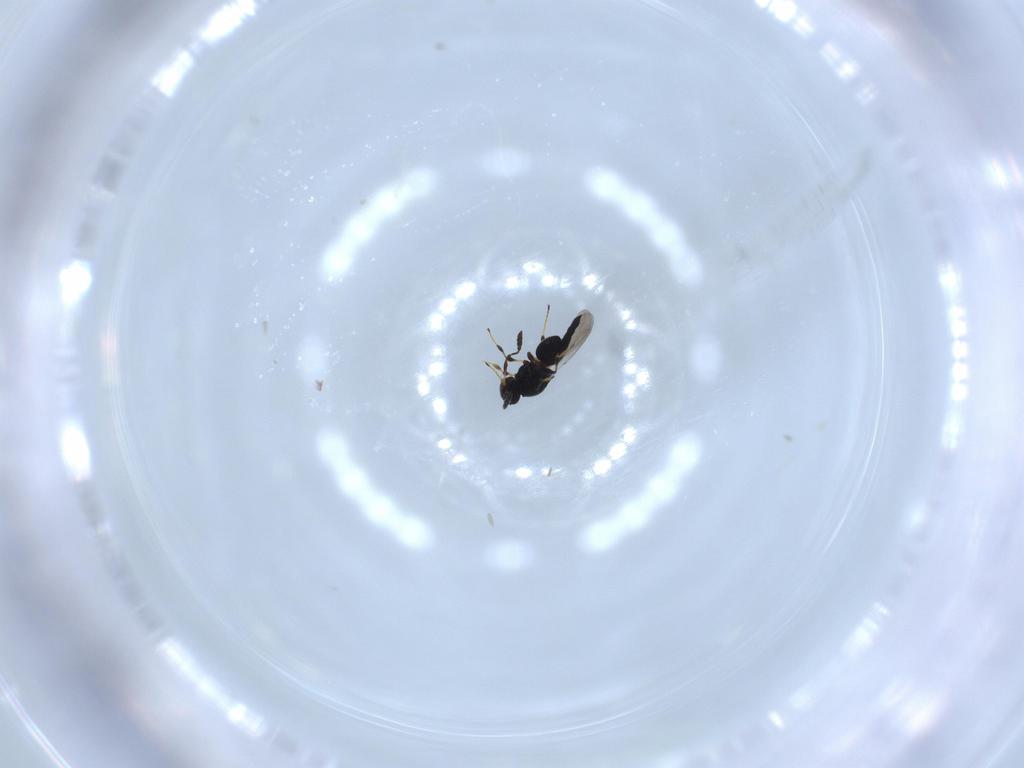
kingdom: Animalia
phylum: Arthropoda
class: Insecta
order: Hymenoptera
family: Platygastridae
